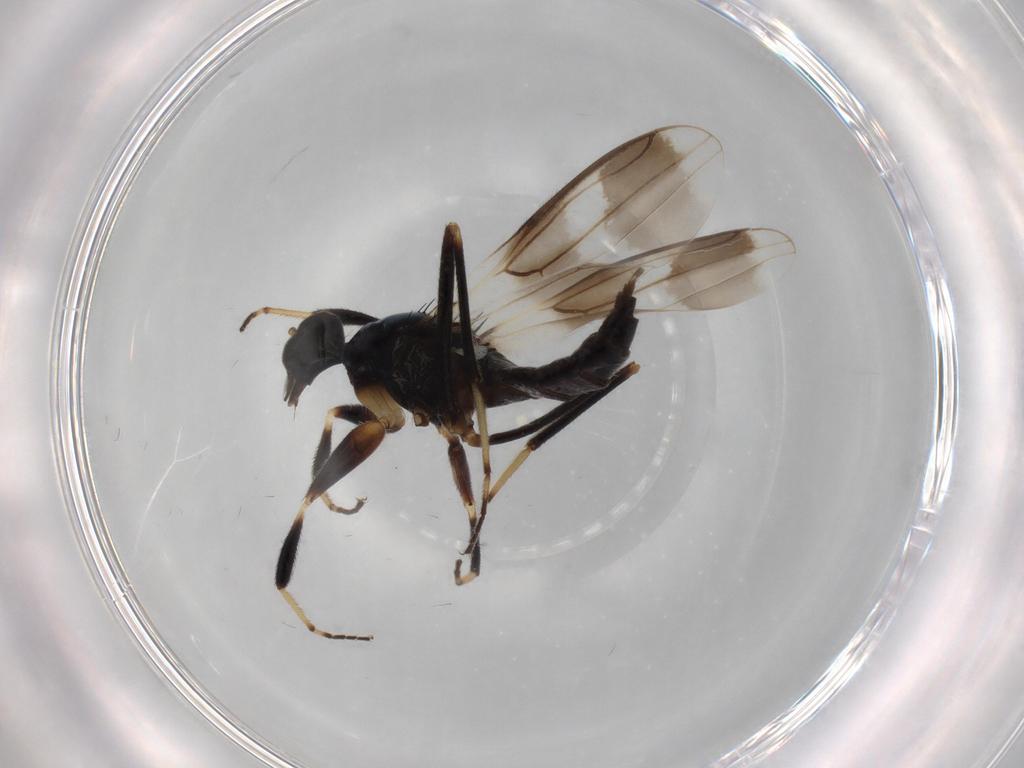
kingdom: Animalia
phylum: Arthropoda
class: Insecta
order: Diptera
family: Hybotidae
